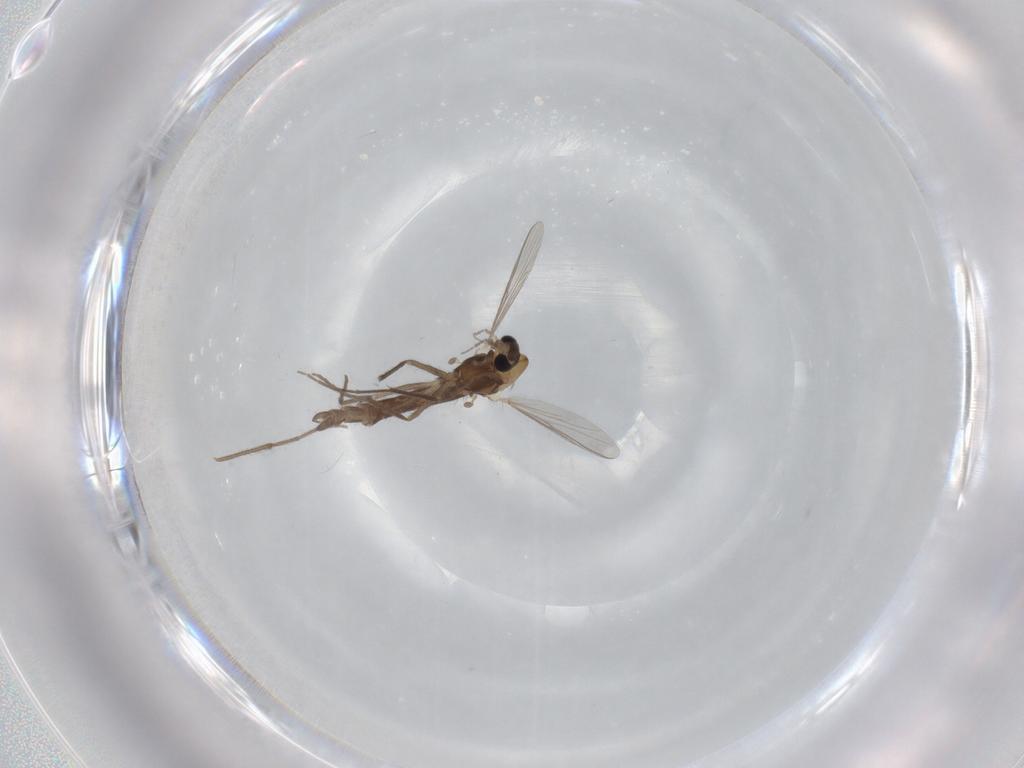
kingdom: Animalia
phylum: Arthropoda
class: Insecta
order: Diptera
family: Chironomidae
